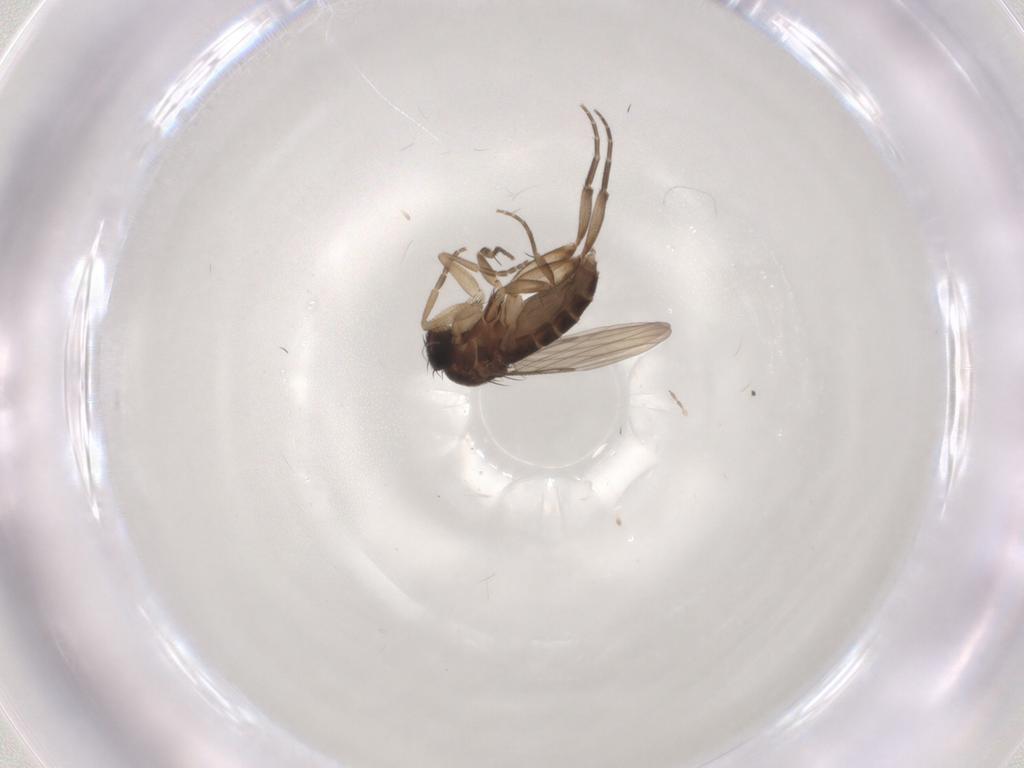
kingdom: Animalia
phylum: Arthropoda
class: Insecta
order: Diptera
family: Phoridae
